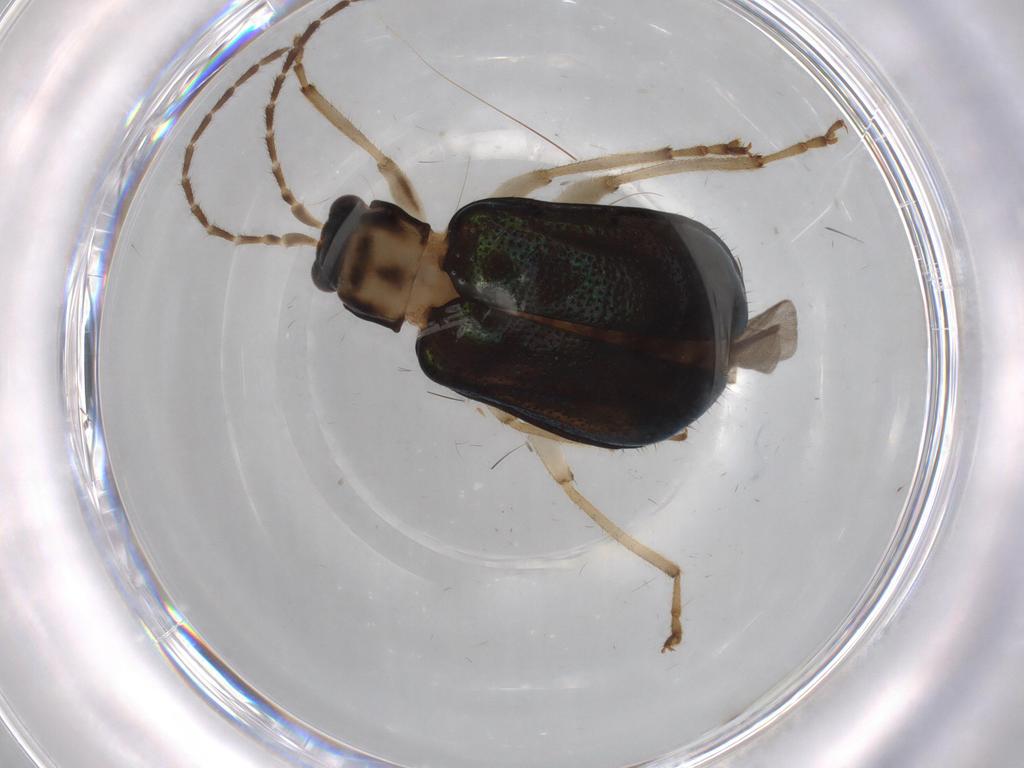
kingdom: Animalia
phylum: Arthropoda
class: Insecta
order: Coleoptera
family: Chrysomelidae
